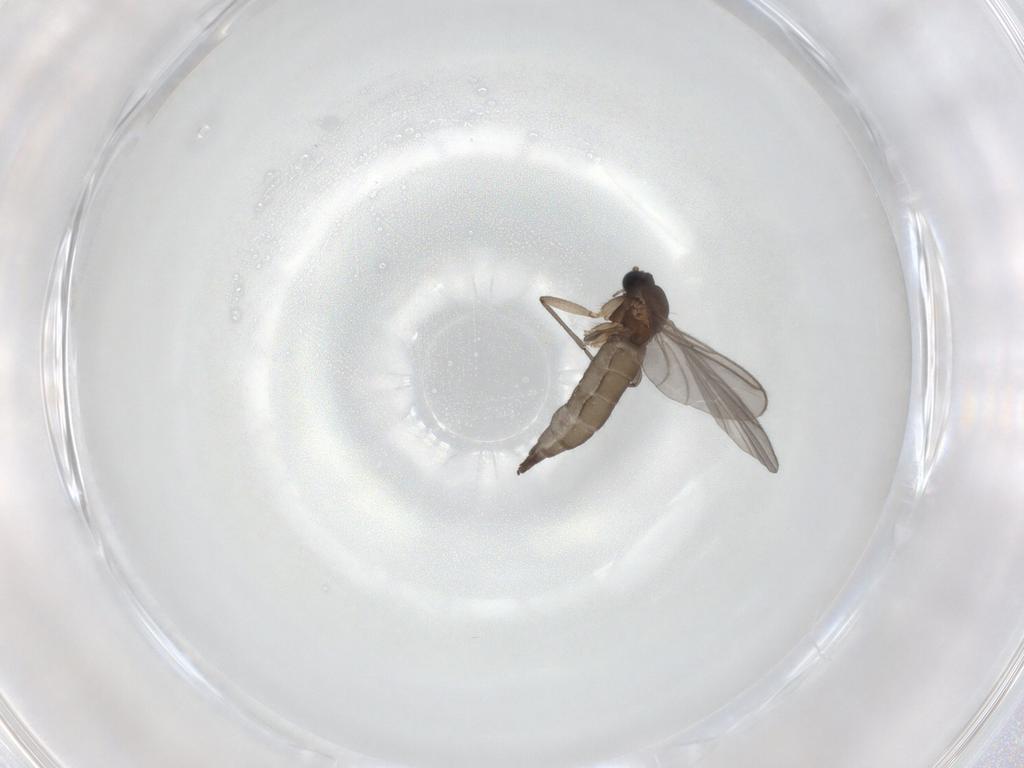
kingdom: Animalia
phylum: Arthropoda
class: Insecta
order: Diptera
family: Sciaridae
